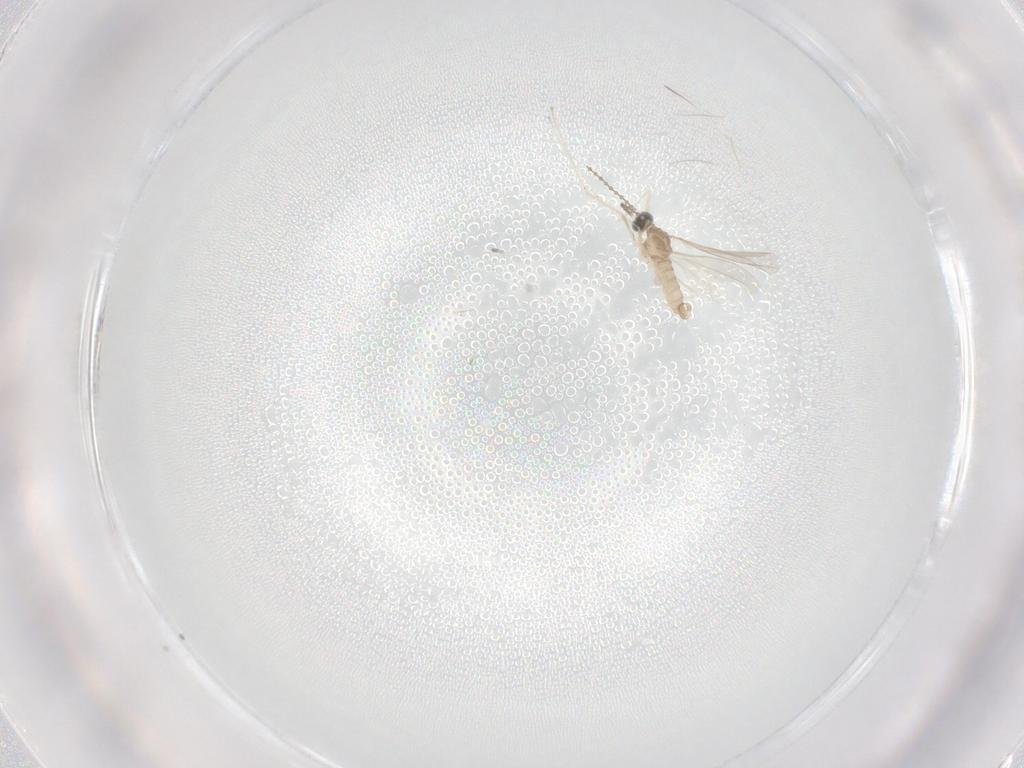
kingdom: Animalia
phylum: Arthropoda
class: Insecta
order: Diptera
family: Cecidomyiidae
